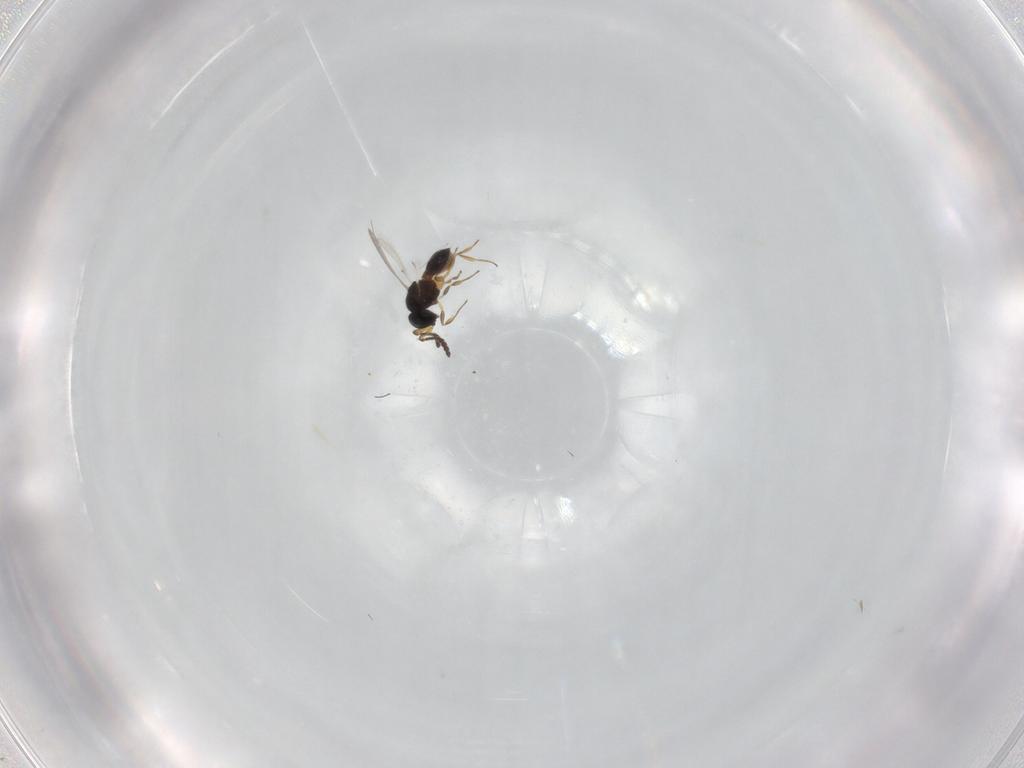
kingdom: Animalia
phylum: Arthropoda
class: Insecta
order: Hymenoptera
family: Scelionidae
